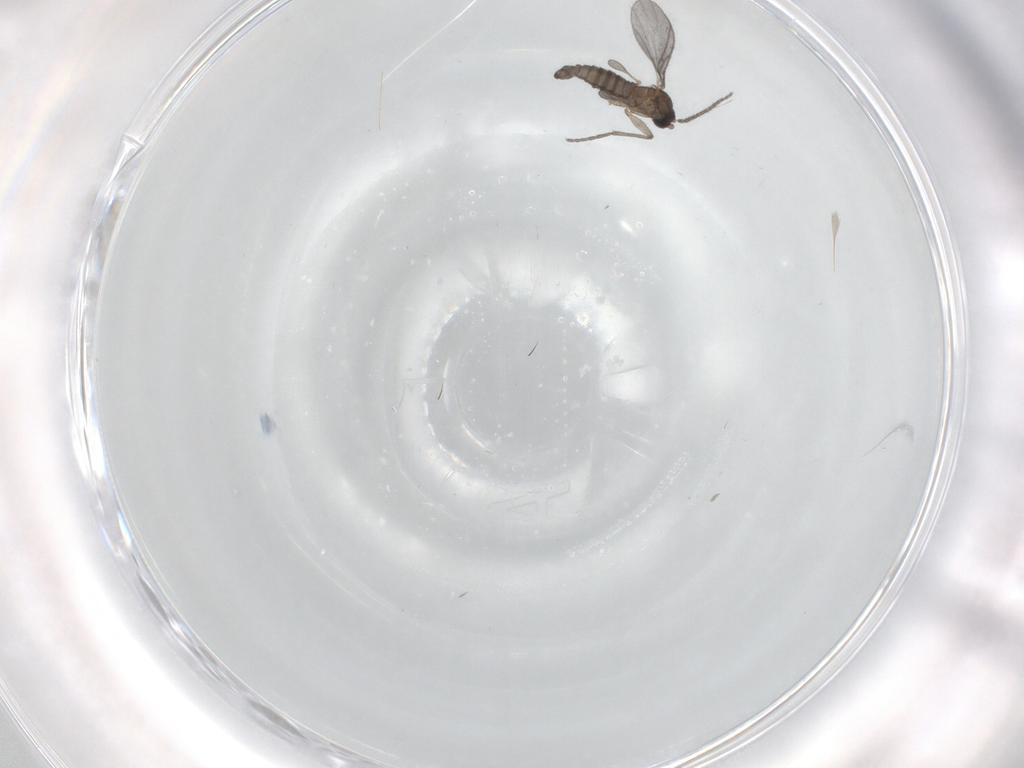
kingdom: Animalia
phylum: Arthropoda
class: Insecta
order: Diptera
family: Sciaridae
